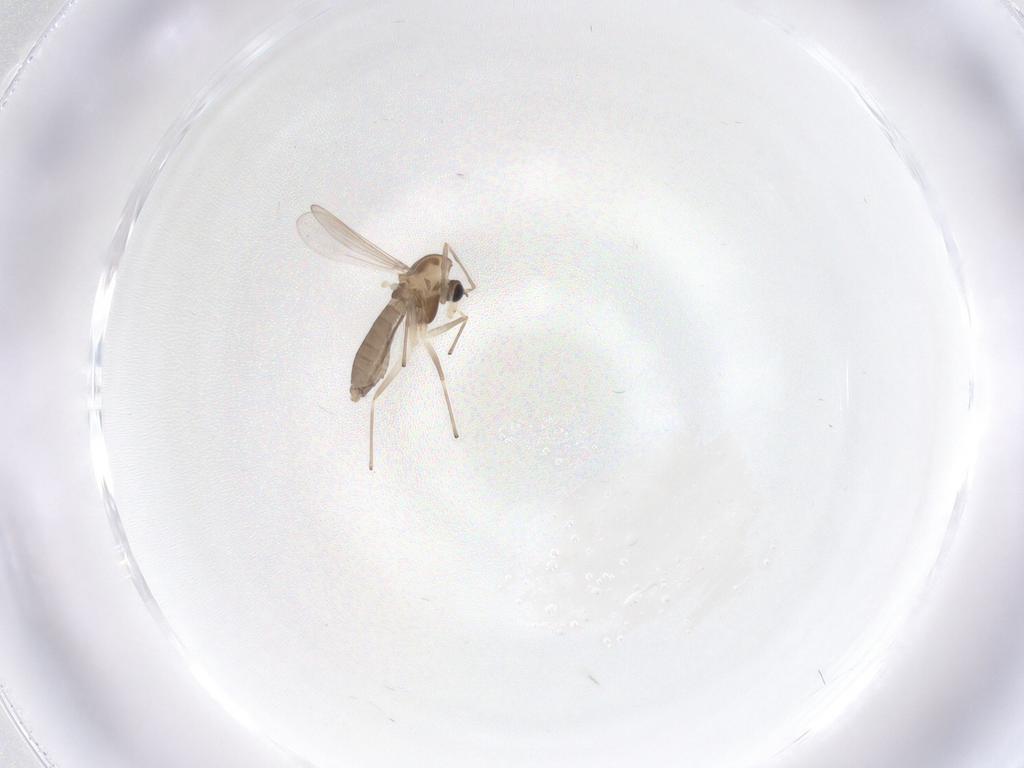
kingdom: Animalia
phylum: Arthropoda
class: Insecta
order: Diptera
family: Chironomidae
